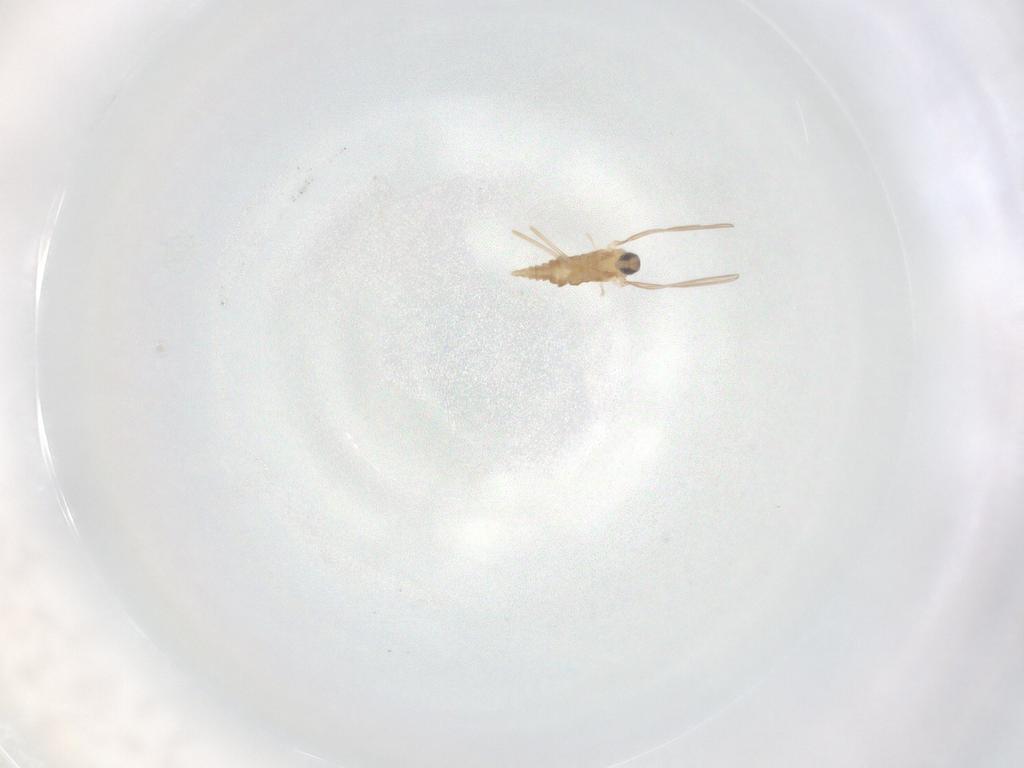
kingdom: Animalia
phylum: Arthropoda
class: Insecta
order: Diptera
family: Cecidomyiidae
